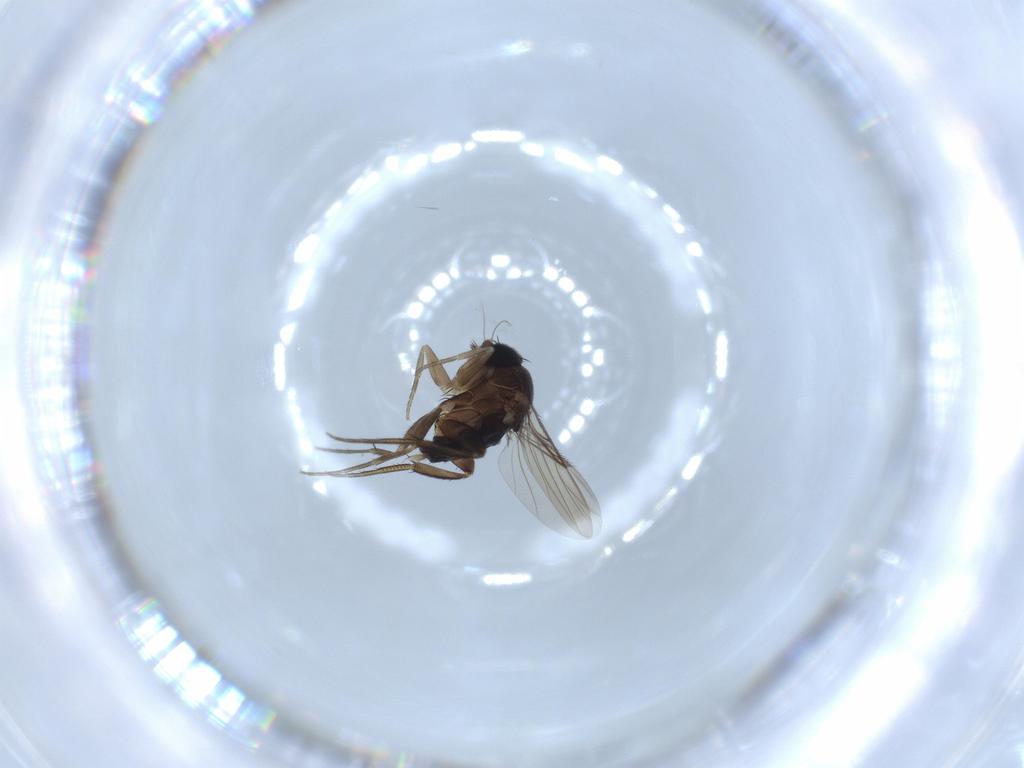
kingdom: Animalia
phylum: Arthropoda
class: Insecta
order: Diptera
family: Phoridae
